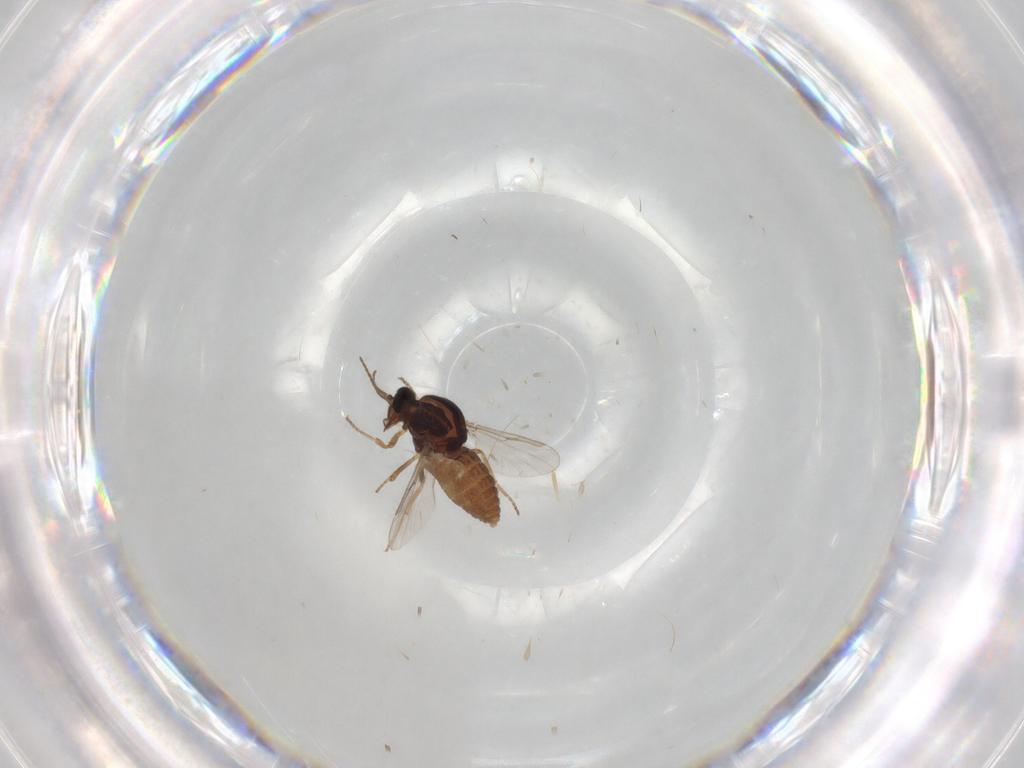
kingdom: Animalia
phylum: Arthropoda
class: Insecta
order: Diptera
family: Ceratopogonidae
